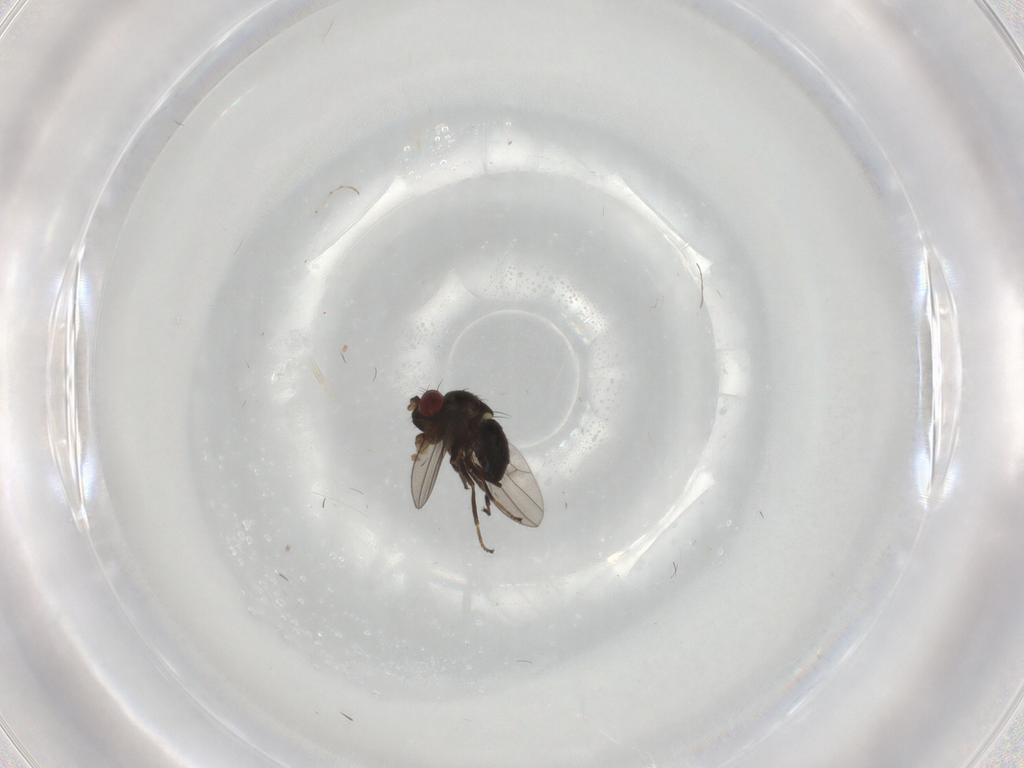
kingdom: Animalia
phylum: Arthropoda
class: Insecta
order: Diptera
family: Ephydridae
